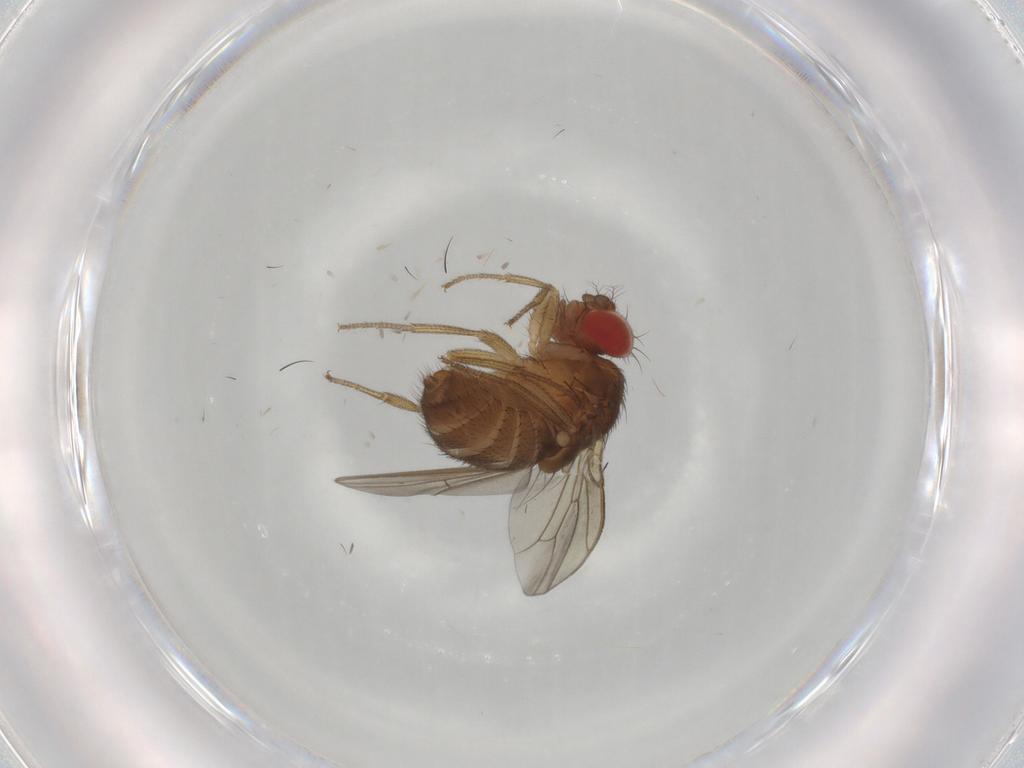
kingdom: Animalia
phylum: Arthropoda
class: Insecta
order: Diptera
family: Drosophilidae
